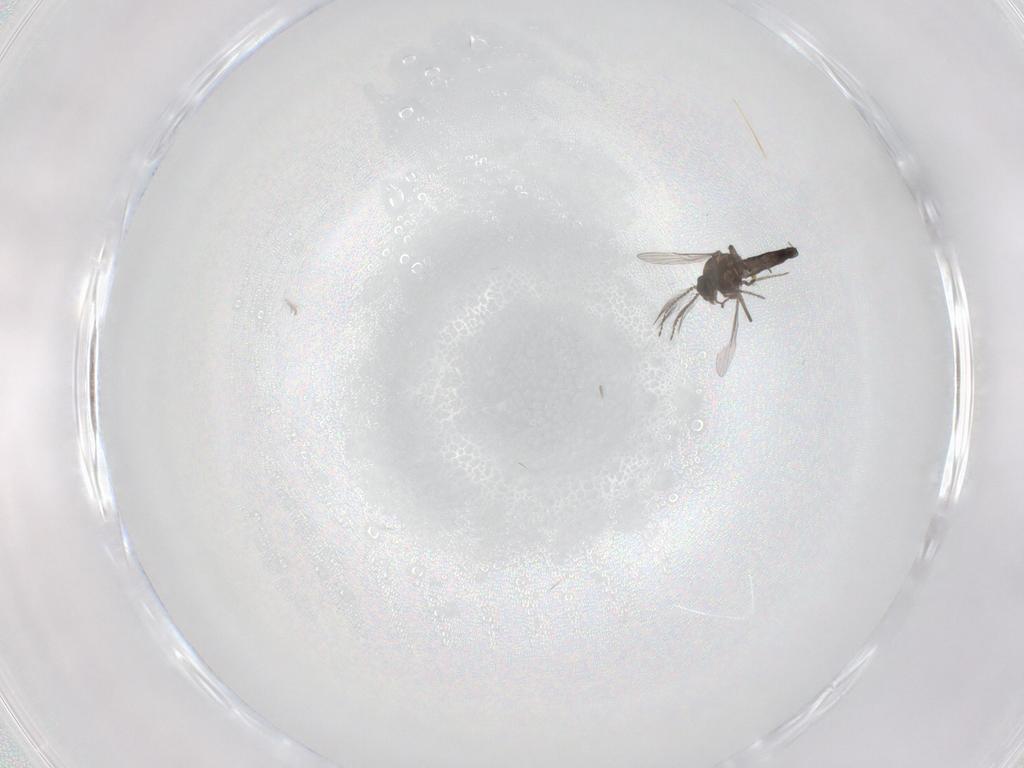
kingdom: Animalia
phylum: Arthropoda
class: Insecta
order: Diptera
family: Ceratopogonidae
